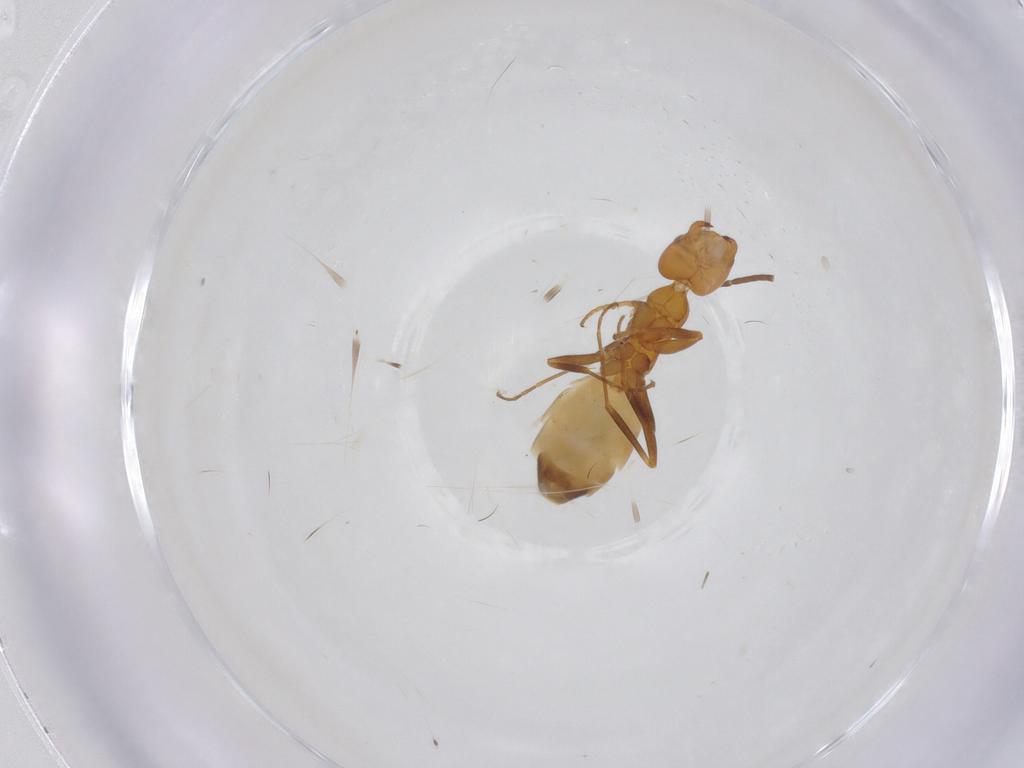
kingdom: Animalia
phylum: Arthropoda
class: Insecta
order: Hymenoptera
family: Formicidae
